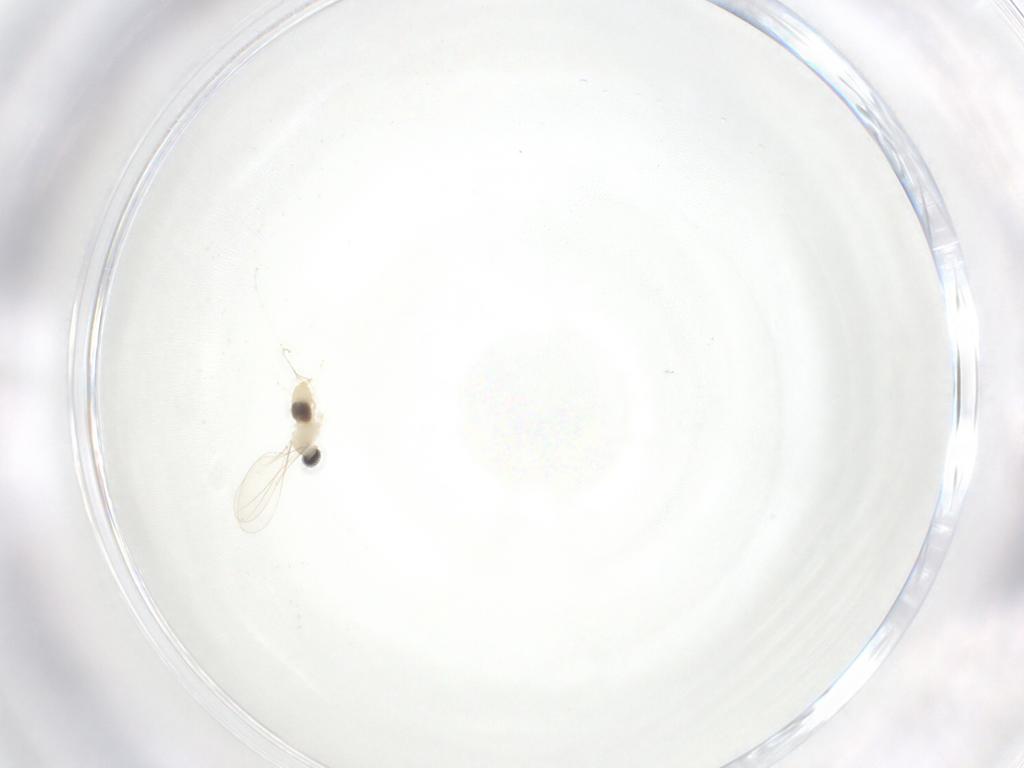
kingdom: Animalia
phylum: Arthropoda
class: Insecta
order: Diptera
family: Cecidomyiidae
